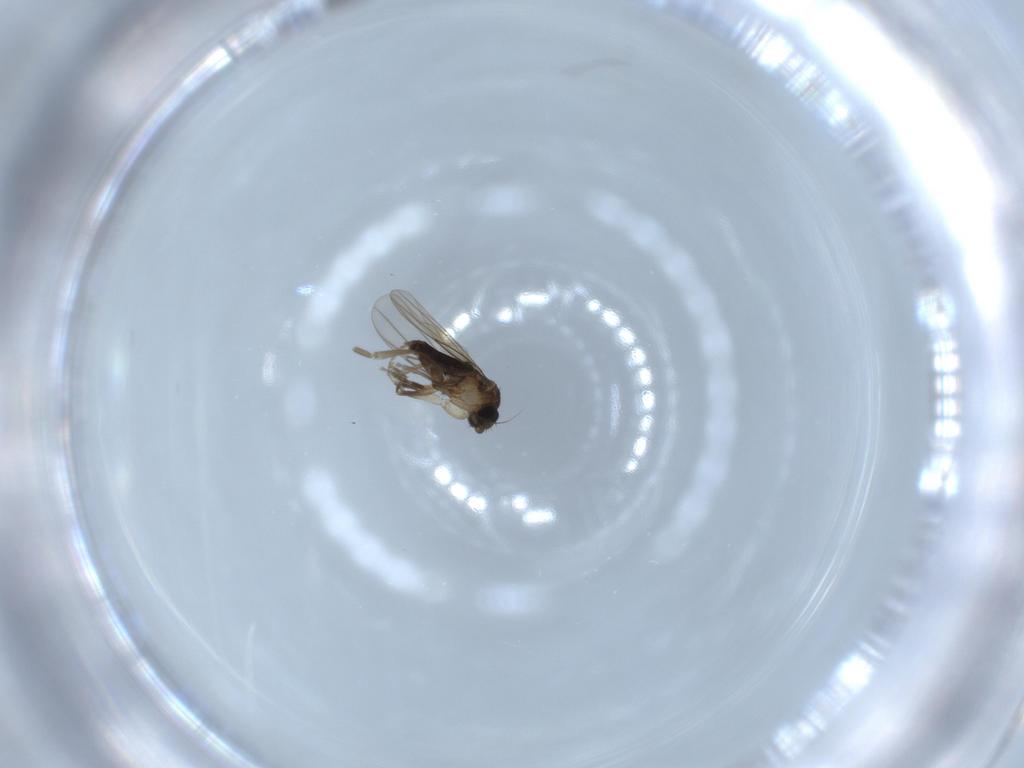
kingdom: Animalia
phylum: Arthropoda
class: Insecta
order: Diptera
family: Phoridae
